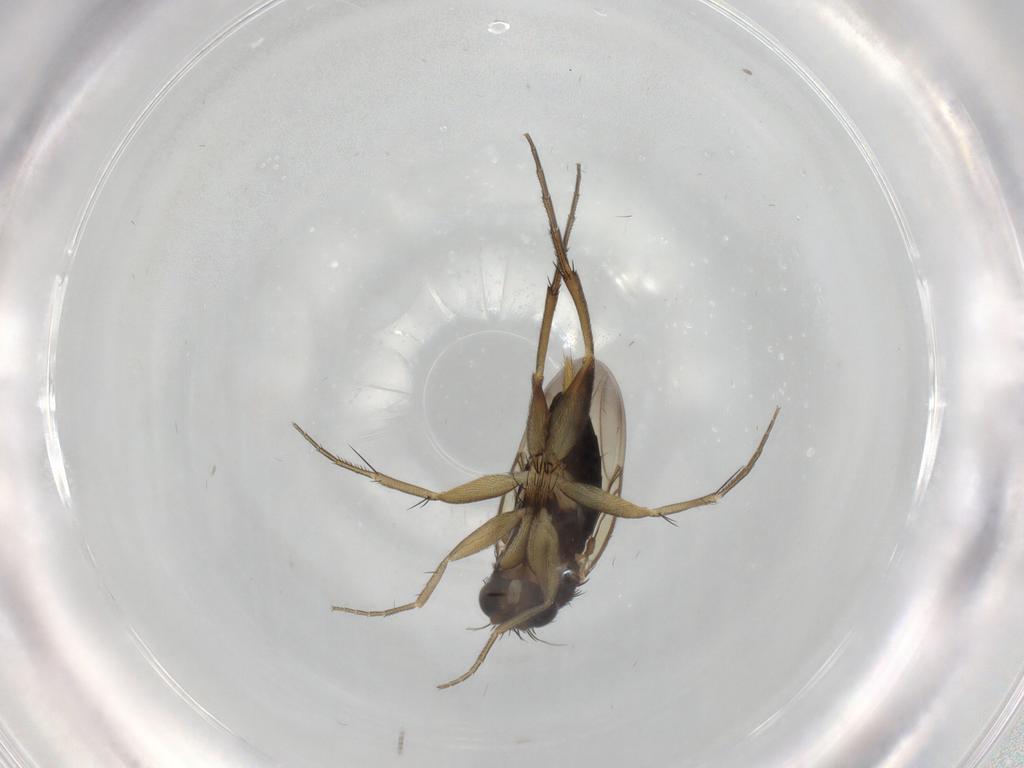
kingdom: Animalia
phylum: Arthropoda
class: Insecta
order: Diptera
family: Phoridae
